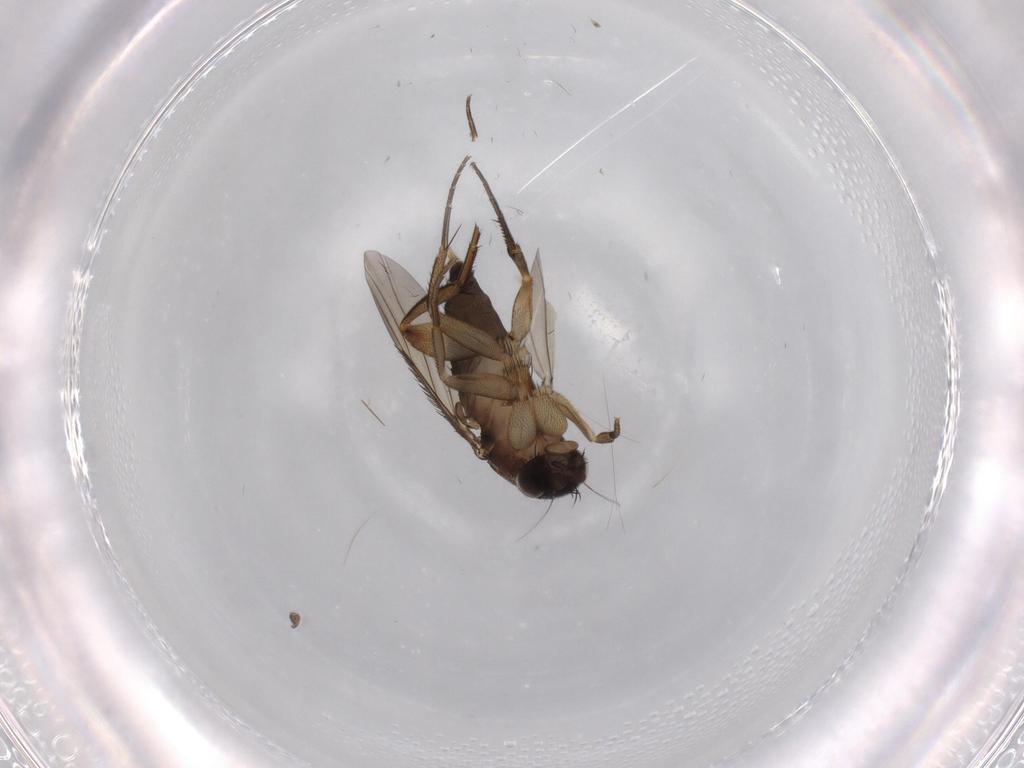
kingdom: Animalia
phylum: Arthropoda
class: Insecta
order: Diptera
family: Phoridae
